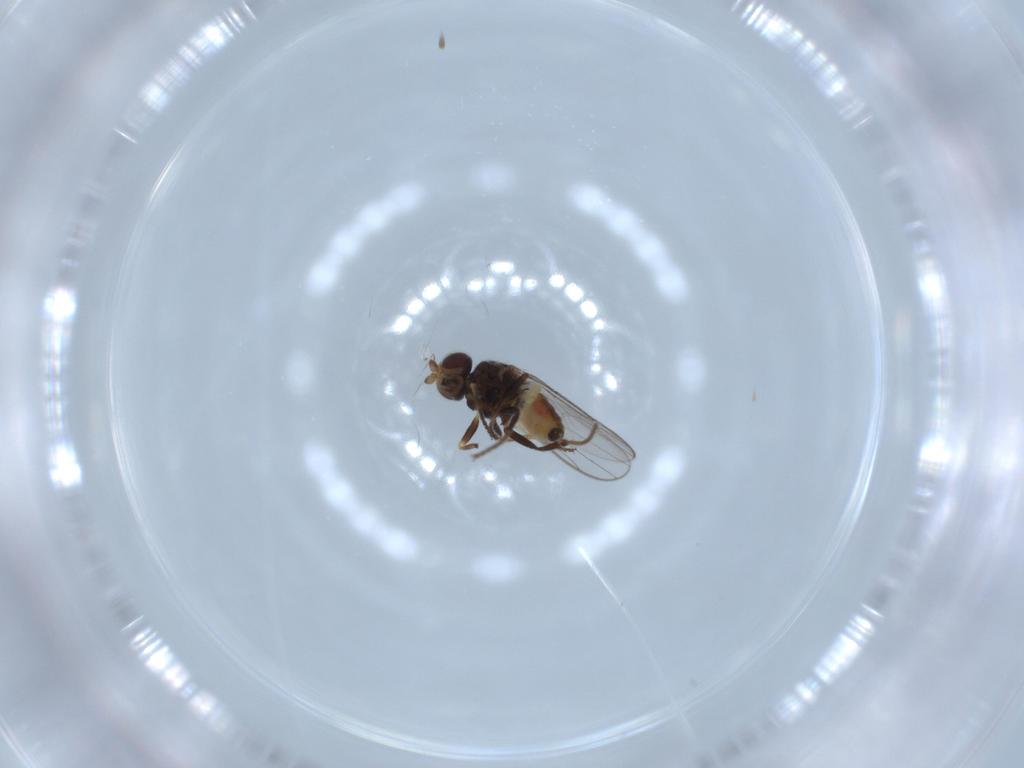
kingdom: Animalia
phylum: Arthropoda
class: Insecta
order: Diptera
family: Chloropidae
